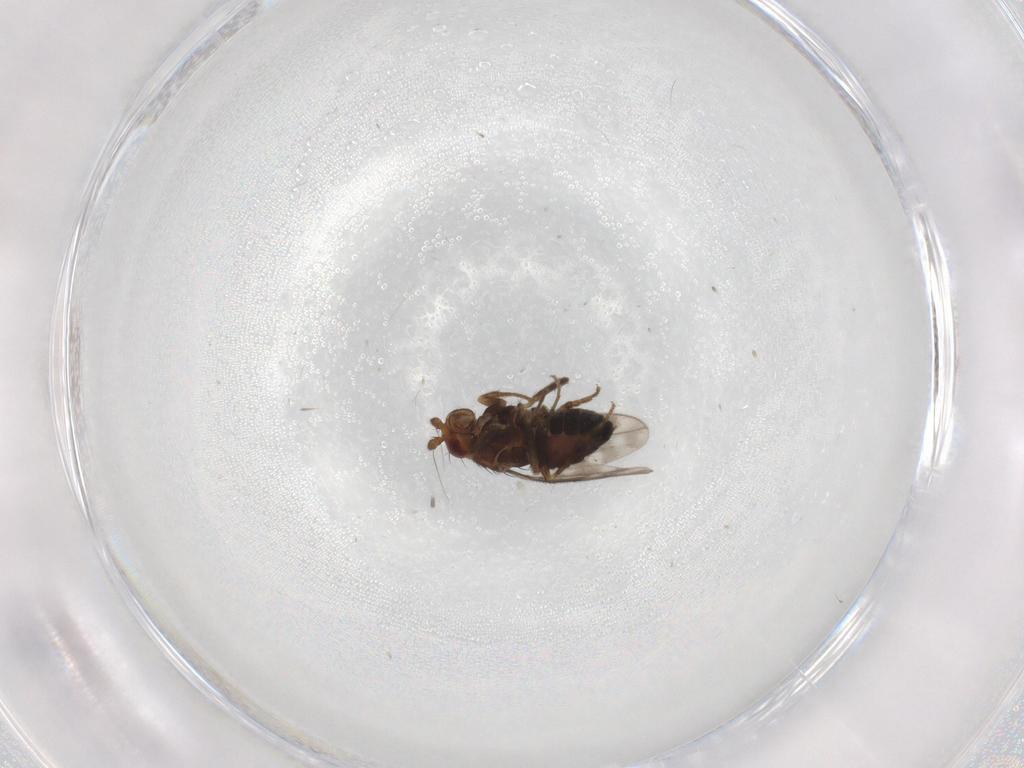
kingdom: Animalia
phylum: Arthropoda
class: Insecta
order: Diptera
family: Sphaeroceridae
